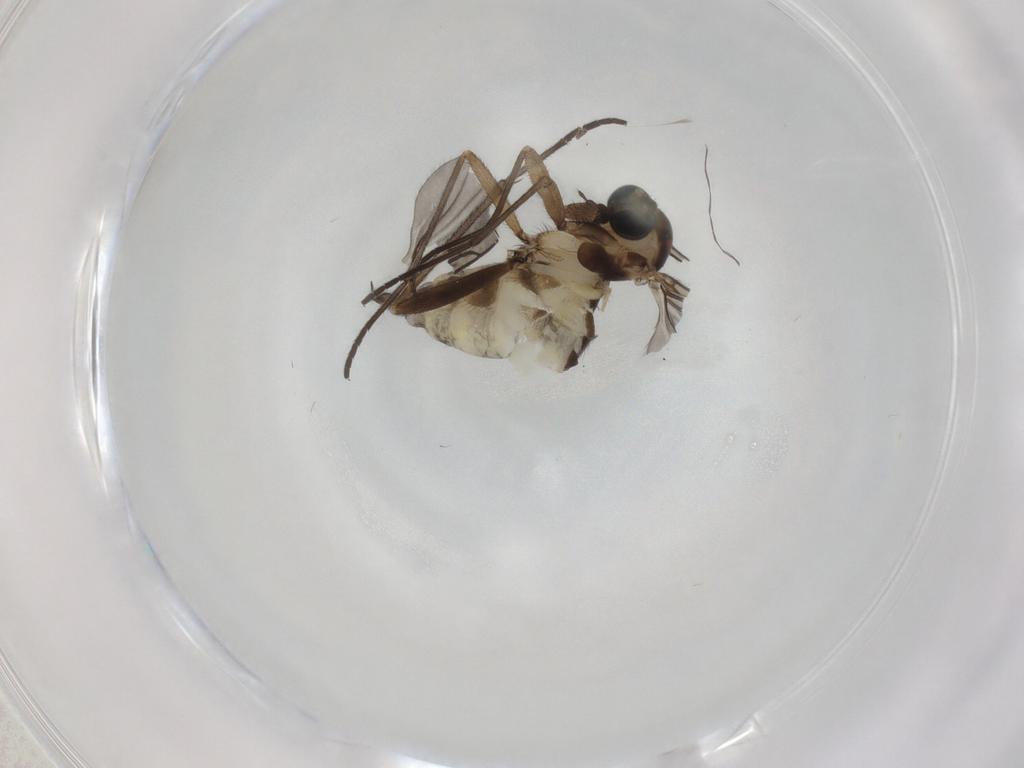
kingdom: Animalia
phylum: Arthropoda
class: Insecta
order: Diptera
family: Sciaridae
